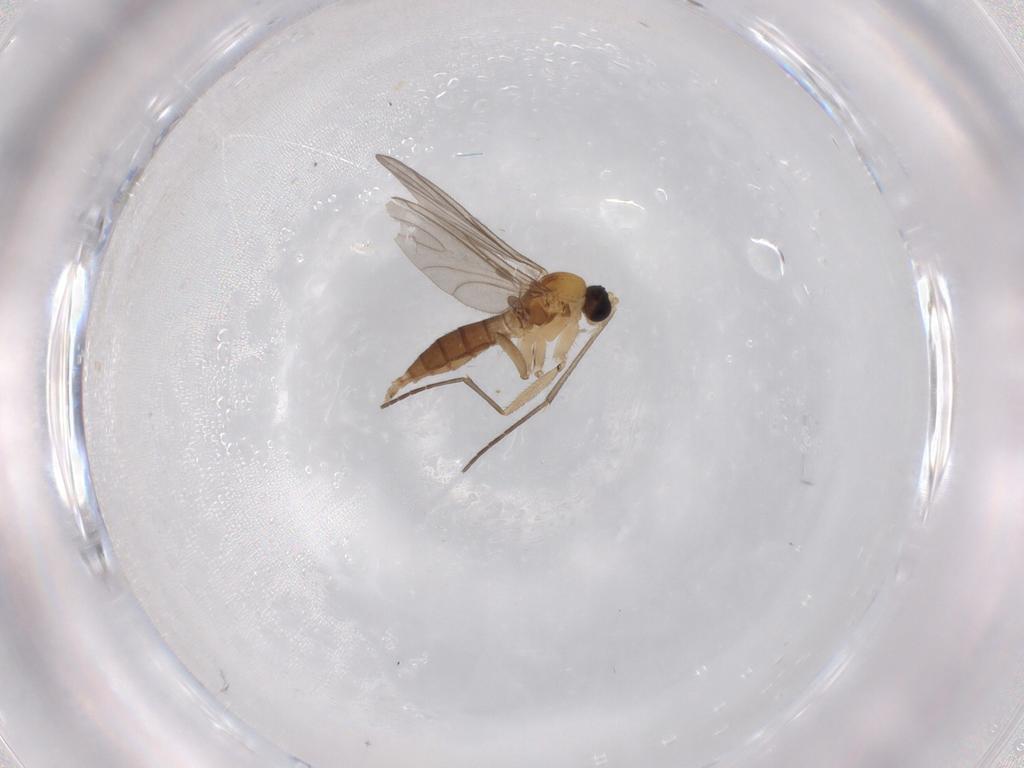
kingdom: Animalia
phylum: Arthropoda
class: Insecta
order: Diptera
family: Sciaridae
